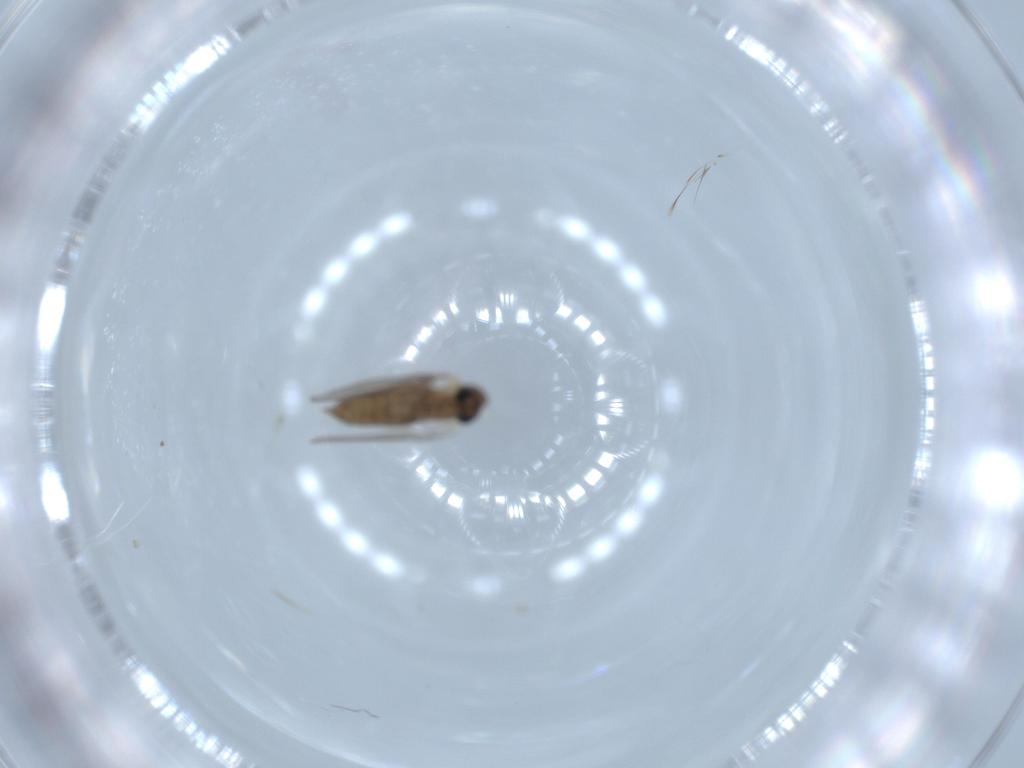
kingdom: Animalia
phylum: Arthropoda
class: Insecta
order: Diptera
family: Psychodidae
